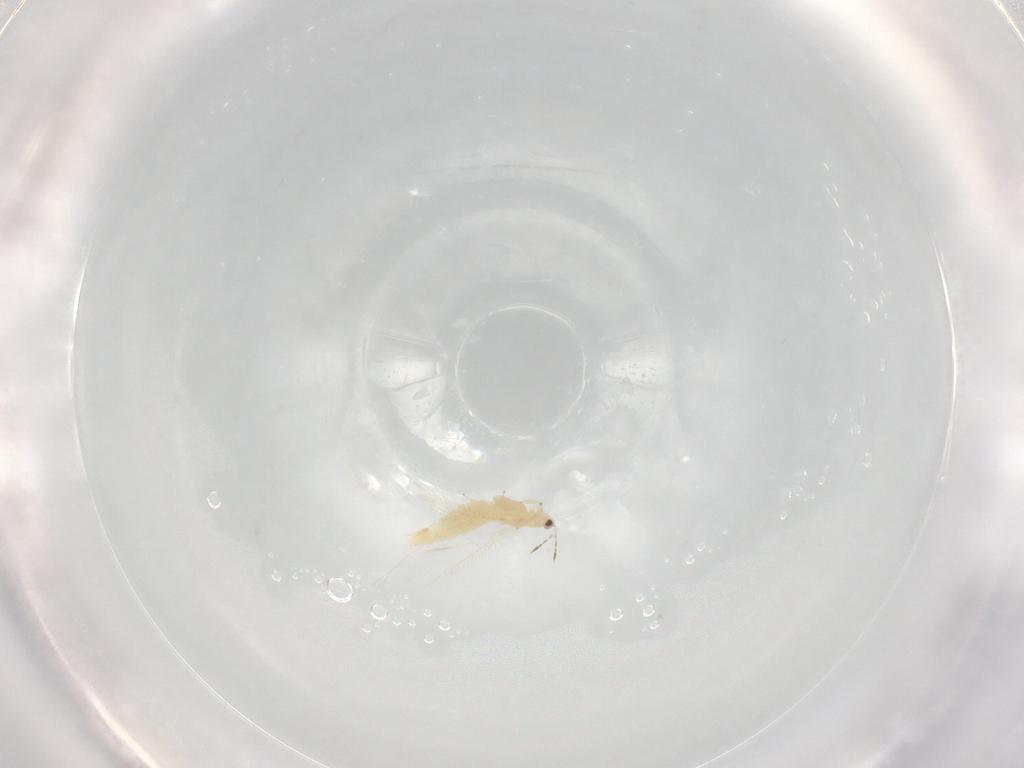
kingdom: Animalia
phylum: Arthropoda
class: Insecta
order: Thysanoptera
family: Thripidae
